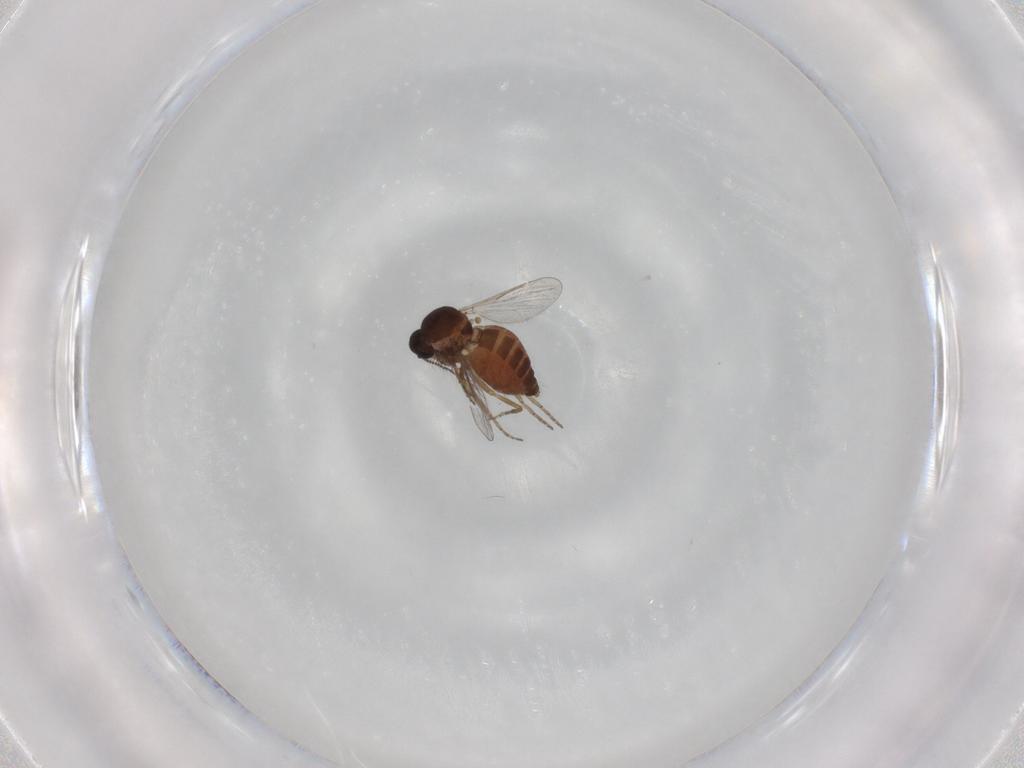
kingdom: Animalia
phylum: Arthropoda
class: Insecta
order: Diptera
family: Ceratopogonidae
